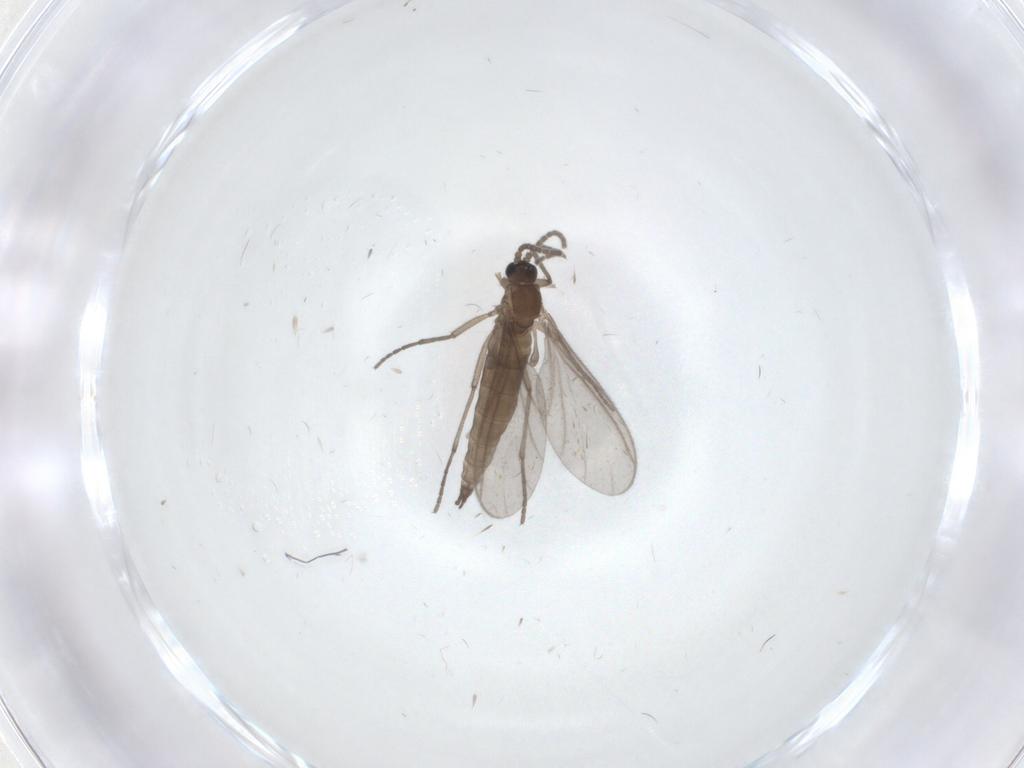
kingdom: Animalia
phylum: Arthropoda
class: Insecta
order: Diptera
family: Sciaridae
